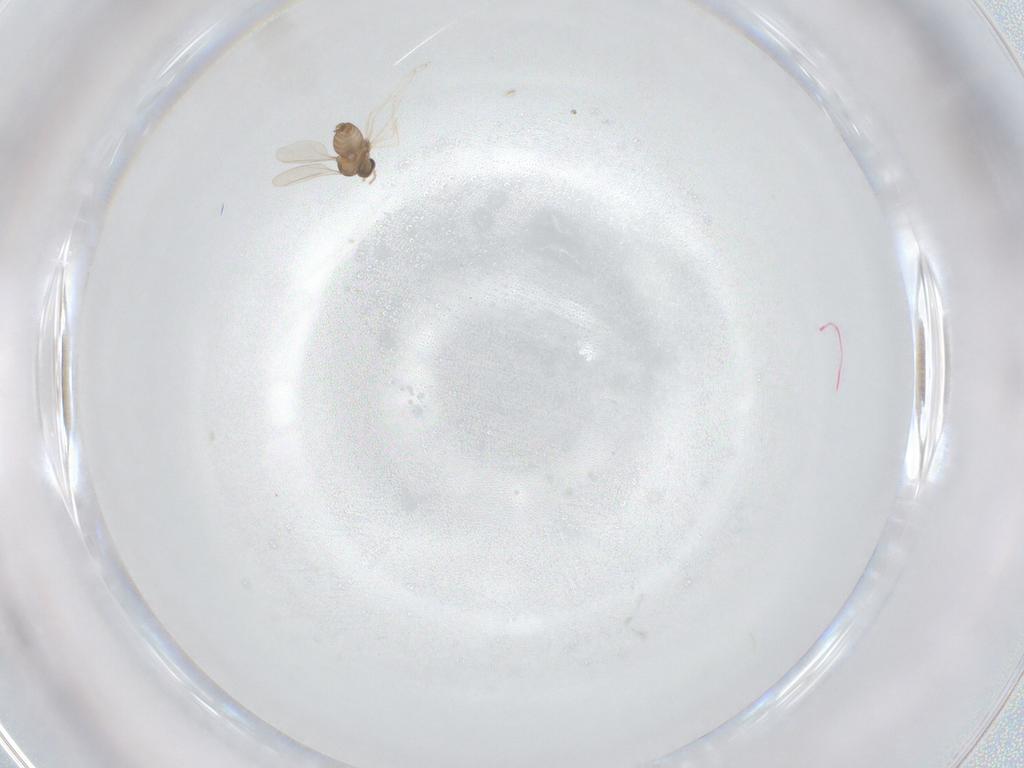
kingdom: Animalia
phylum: Arthropoda
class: Insecta
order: Diptera
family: Cecidomyiidae
